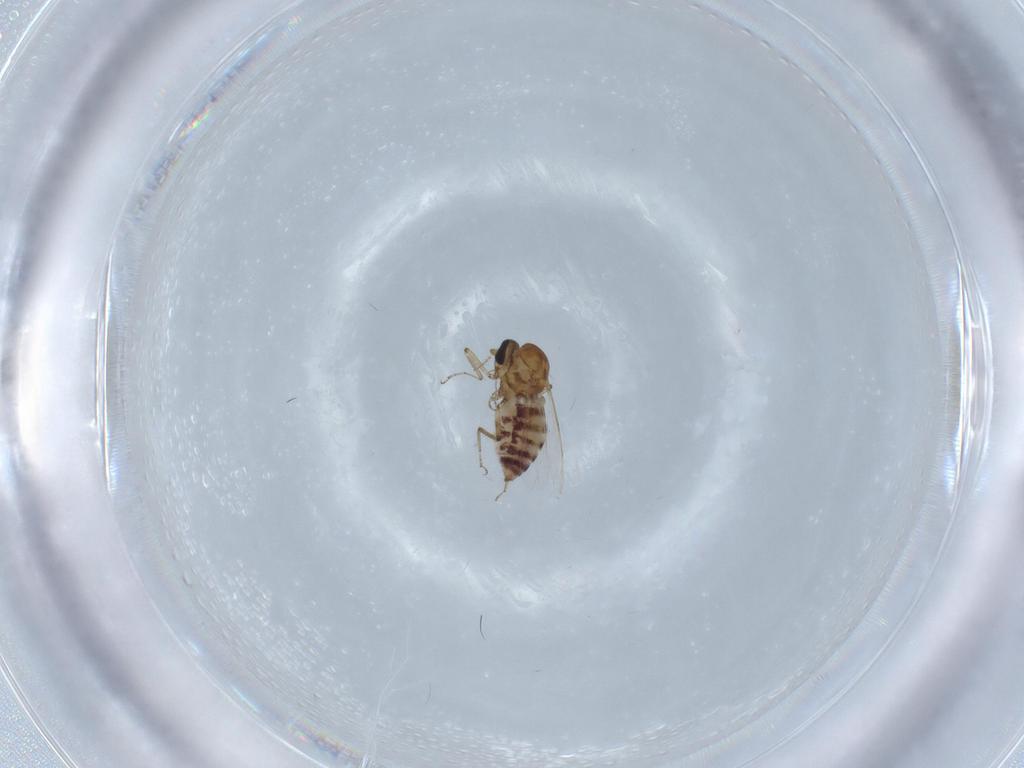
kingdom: Animalia
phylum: Arthropoda
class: Insecta
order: Diptera
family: Ceratopogonidae
